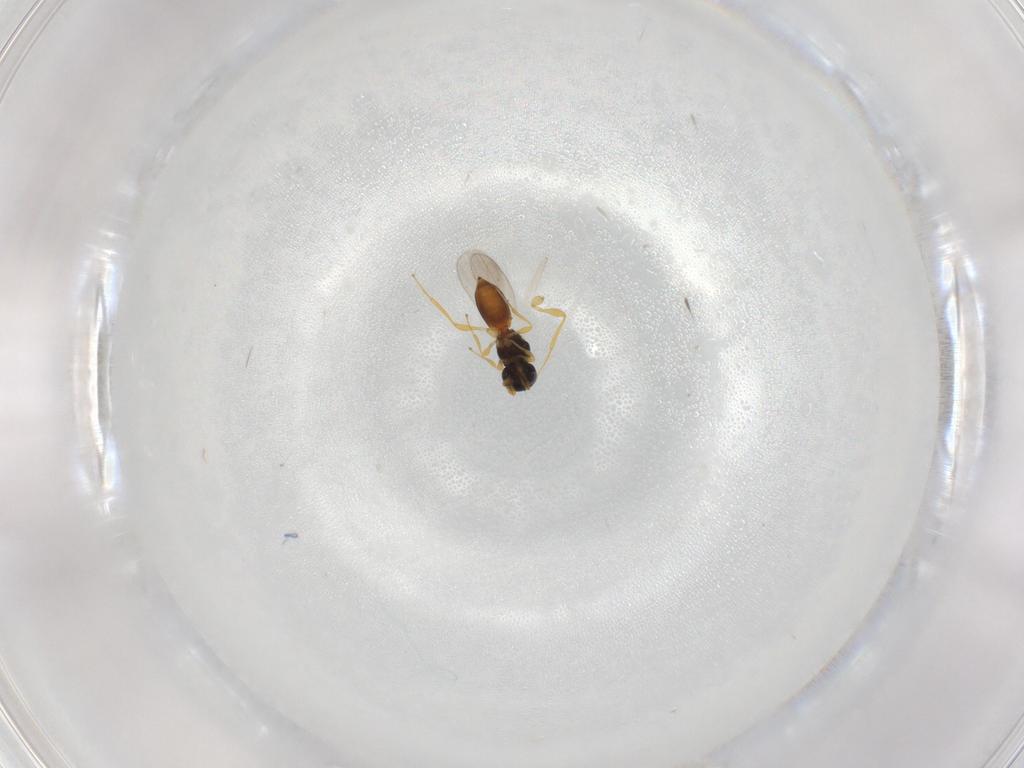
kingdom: Animalia
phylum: Arthropoda
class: Insecta
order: Hymenoptera
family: Platygastridae
